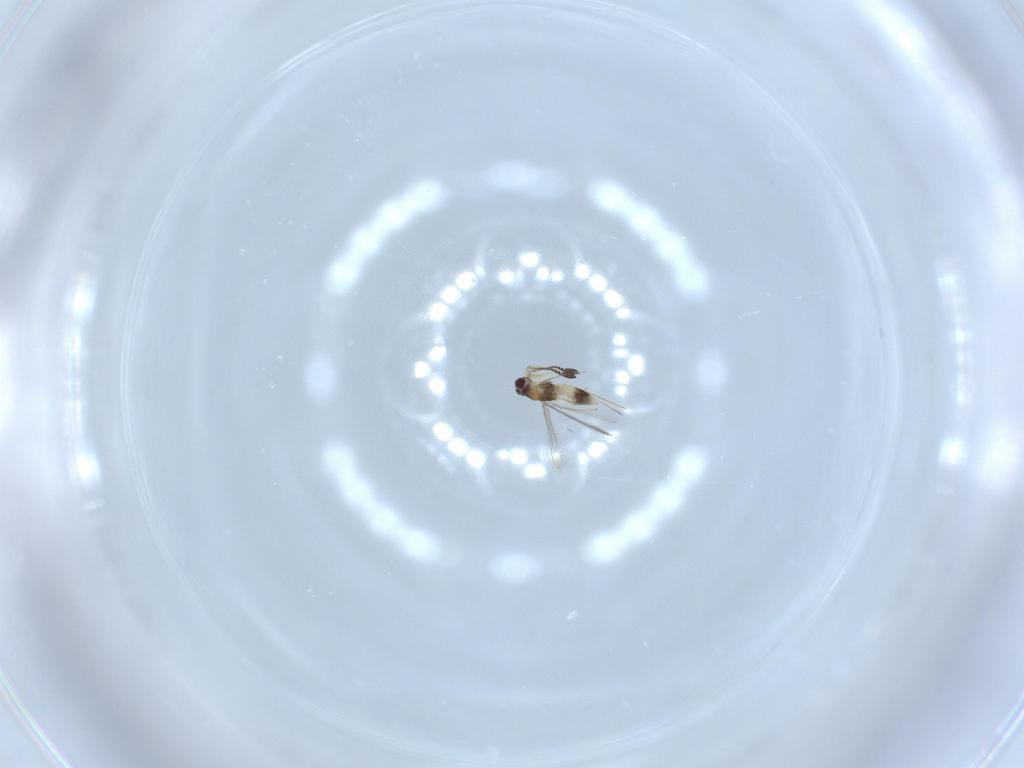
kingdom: Animalia
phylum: Arthropoda
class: Insecta
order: Hymenoptera
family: Mymaridae
